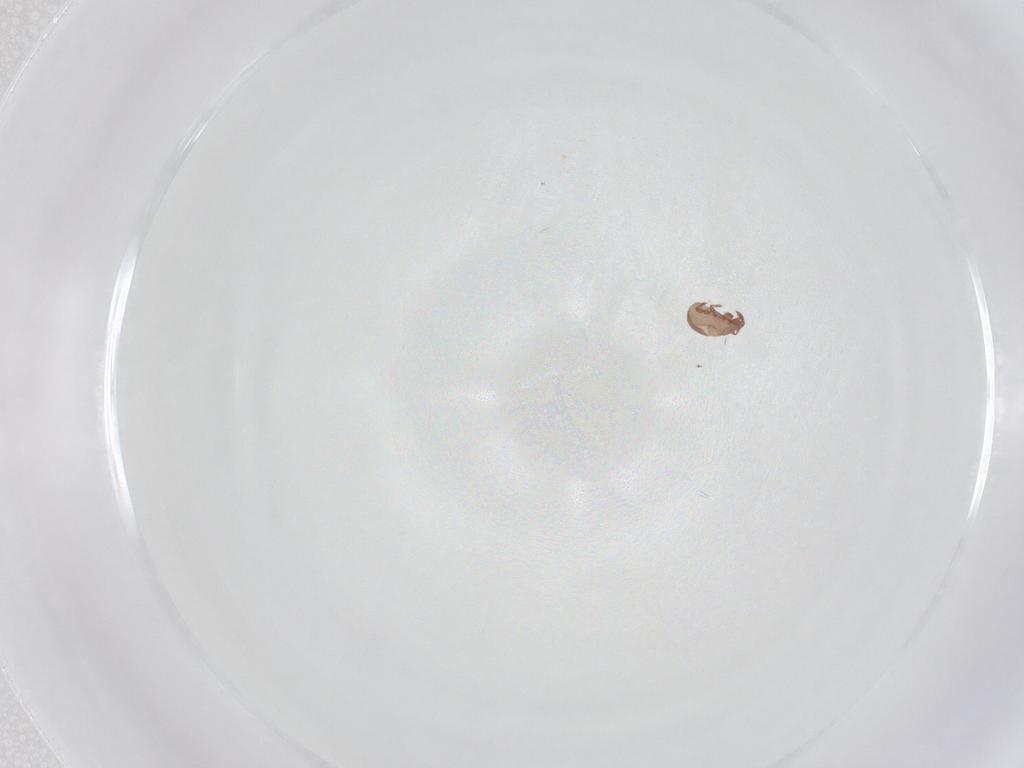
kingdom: Animalia
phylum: Arthropoda
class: Arachnida
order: Sarcoptiformes
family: Eremaeidae
